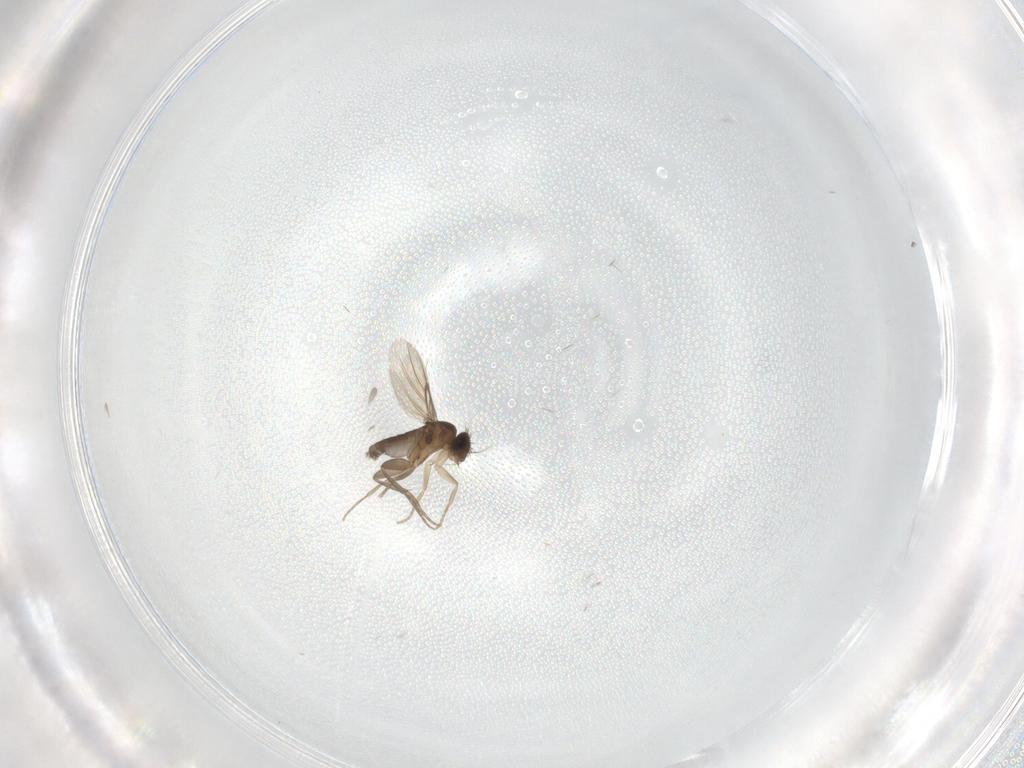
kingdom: Animalia
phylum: Arthropoda
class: Insecta
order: Diptera
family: Phoridae
